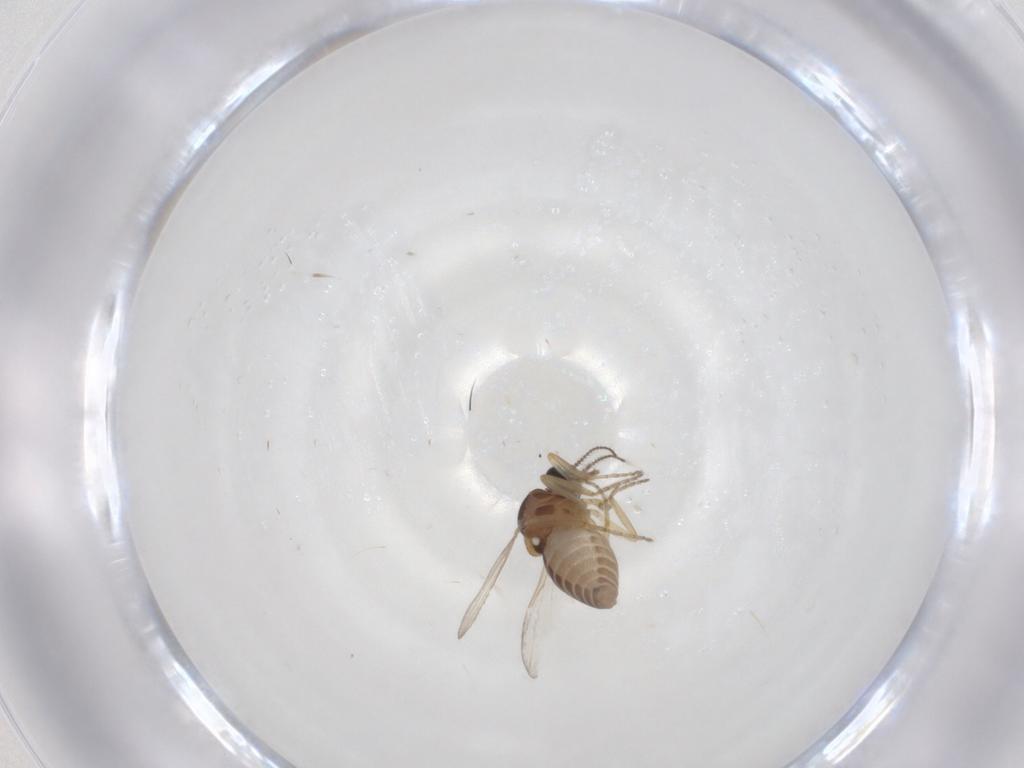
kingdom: Animalia
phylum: Arthropoda
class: Insecta
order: Diptera
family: Ceratopogonidae
